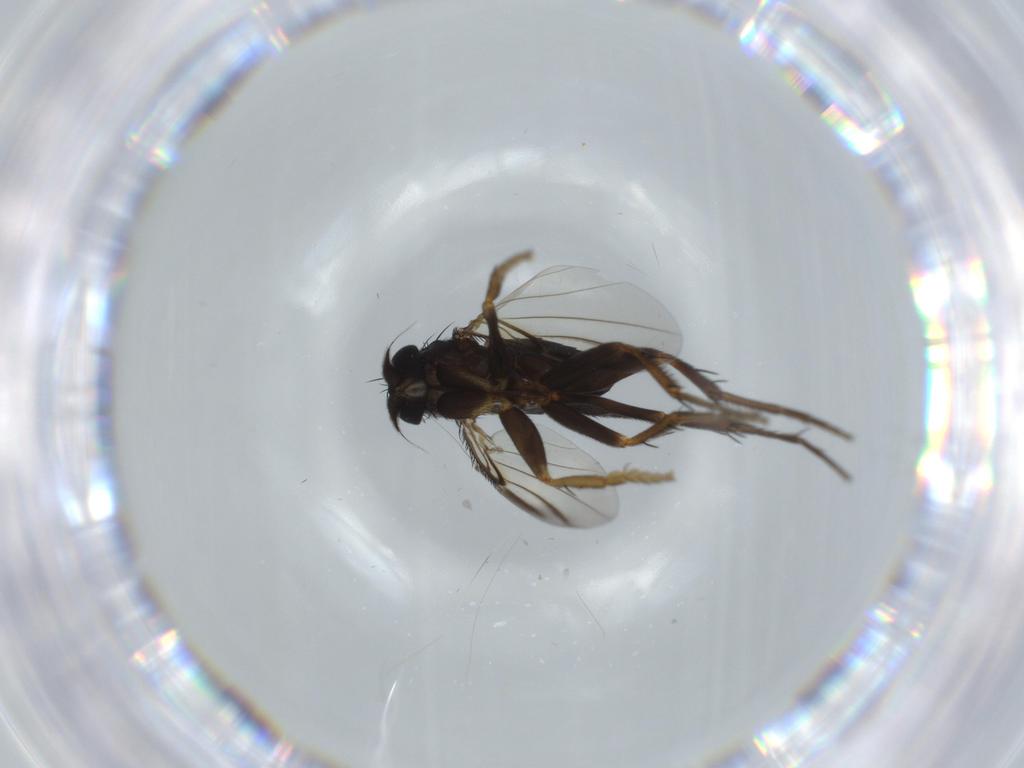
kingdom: Animalia
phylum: Arthropoda
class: Insecta
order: Diptera
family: Phoridae
